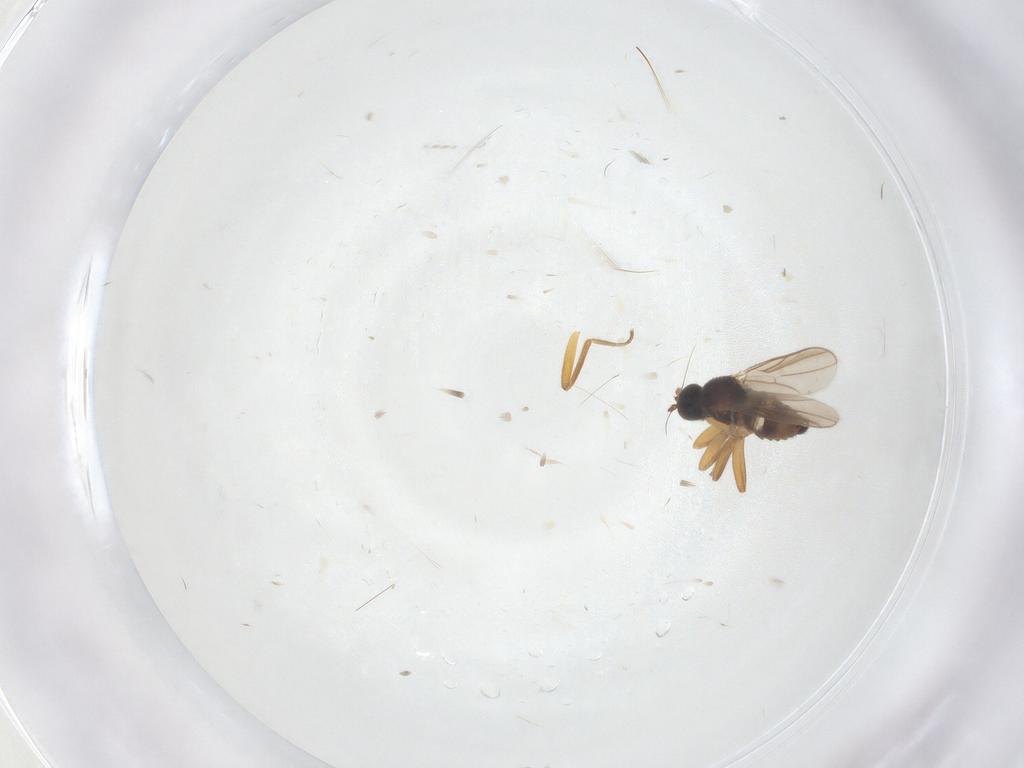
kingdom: Animalia
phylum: Arthropoda
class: Insecta
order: Diptera
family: Hybotidae
